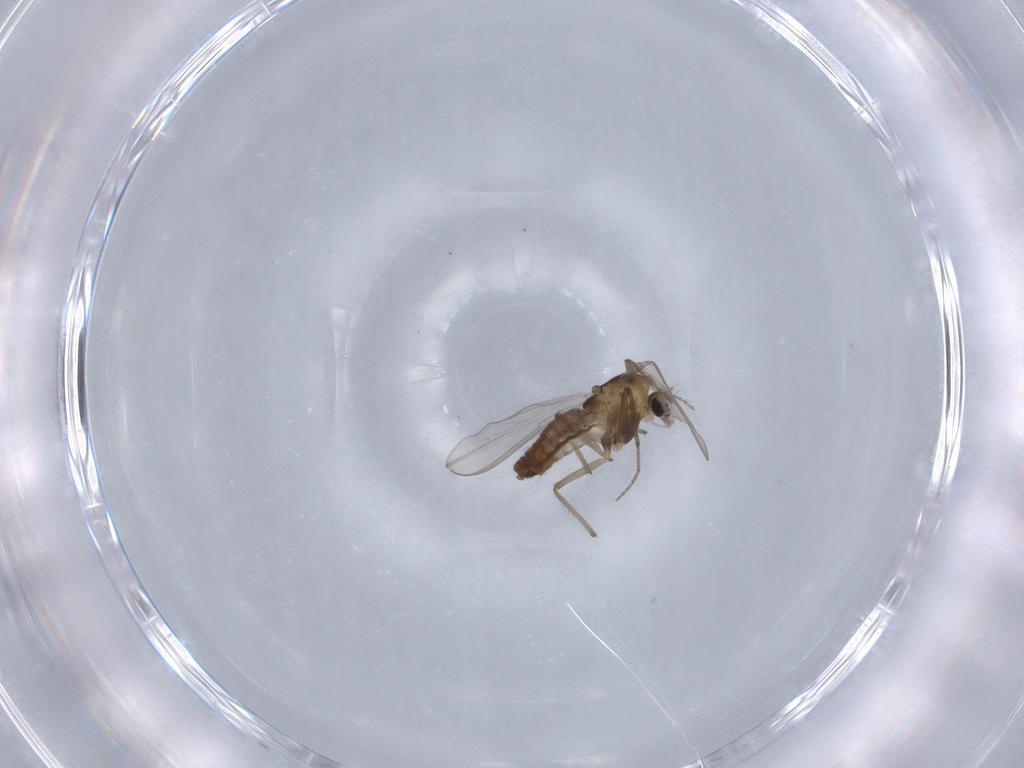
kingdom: Animalia
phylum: Arthropoda
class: Insecta
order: Diptera
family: Chironomidae
